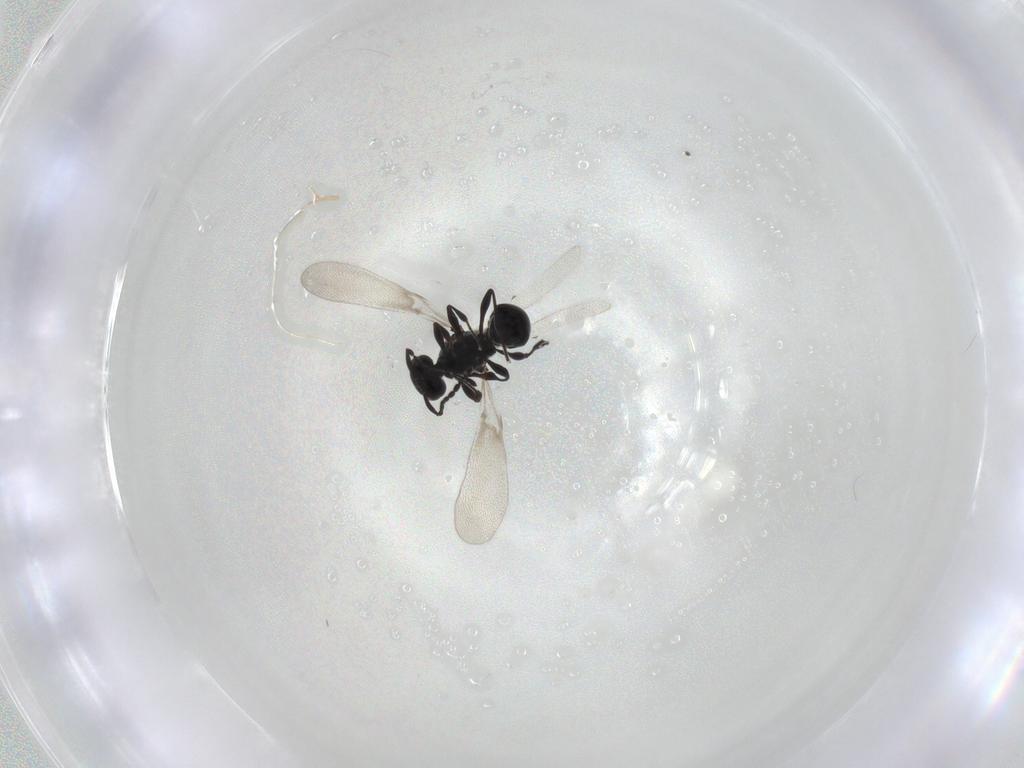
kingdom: Animalia
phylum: Arthropoda
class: Insecta
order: Hymenoptera
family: Platygastridae
